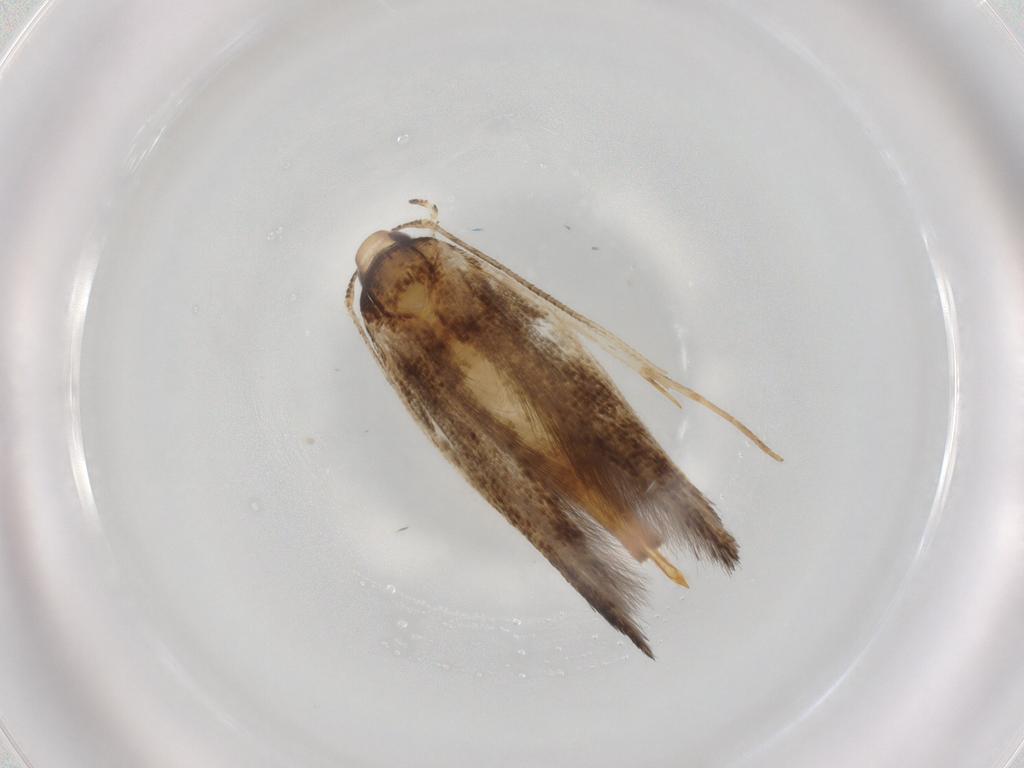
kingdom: Animalia
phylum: Arthropoda
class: Insecta
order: Lepidoptera
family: Cosmopterigidae
